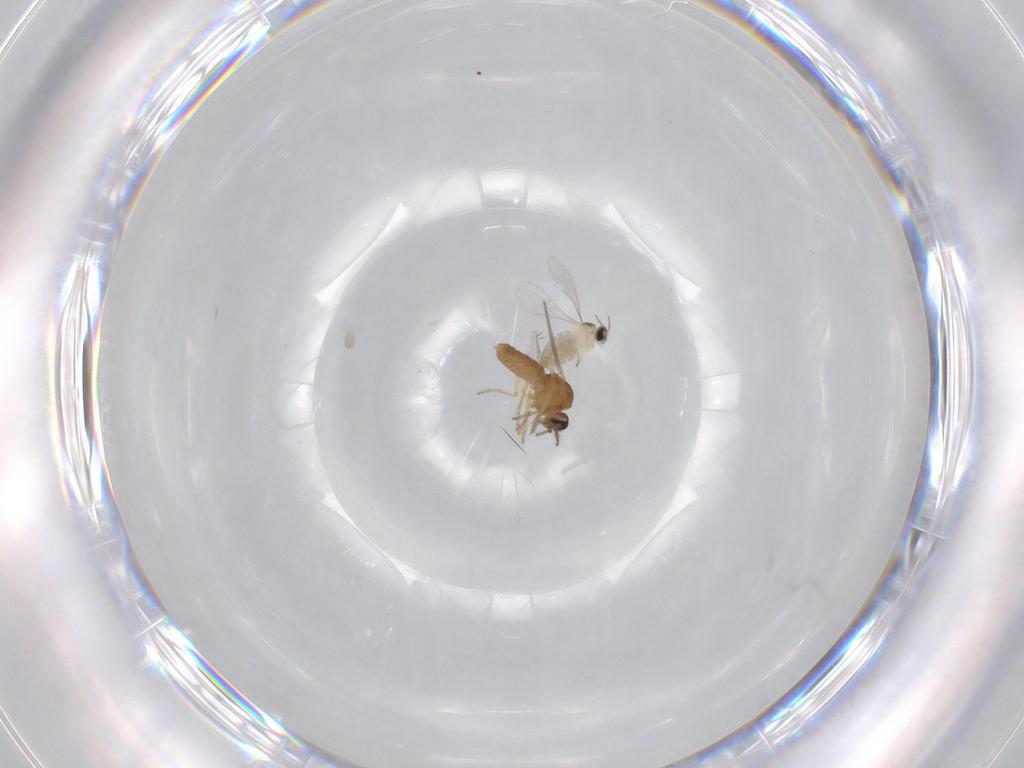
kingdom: Animalia
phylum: Arthropoda
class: Insecta
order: Diptera
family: Ceratopogonidae
